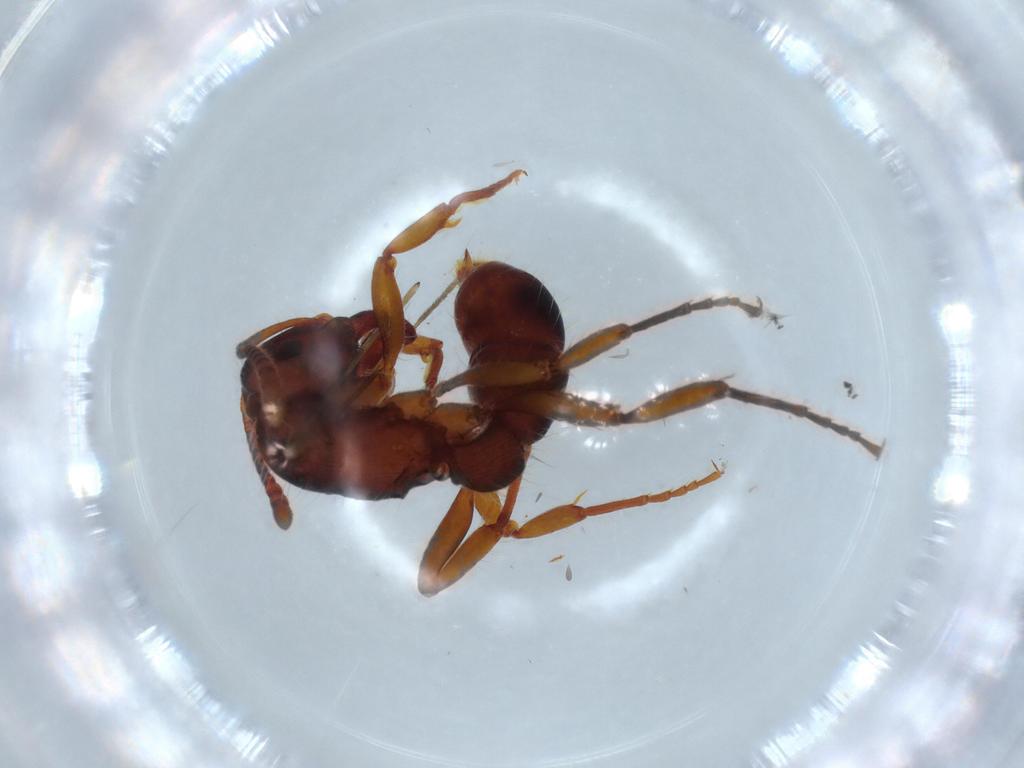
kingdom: Animalia
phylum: Arthropoda
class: Insecta
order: Hymenoptera
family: Formicidae
